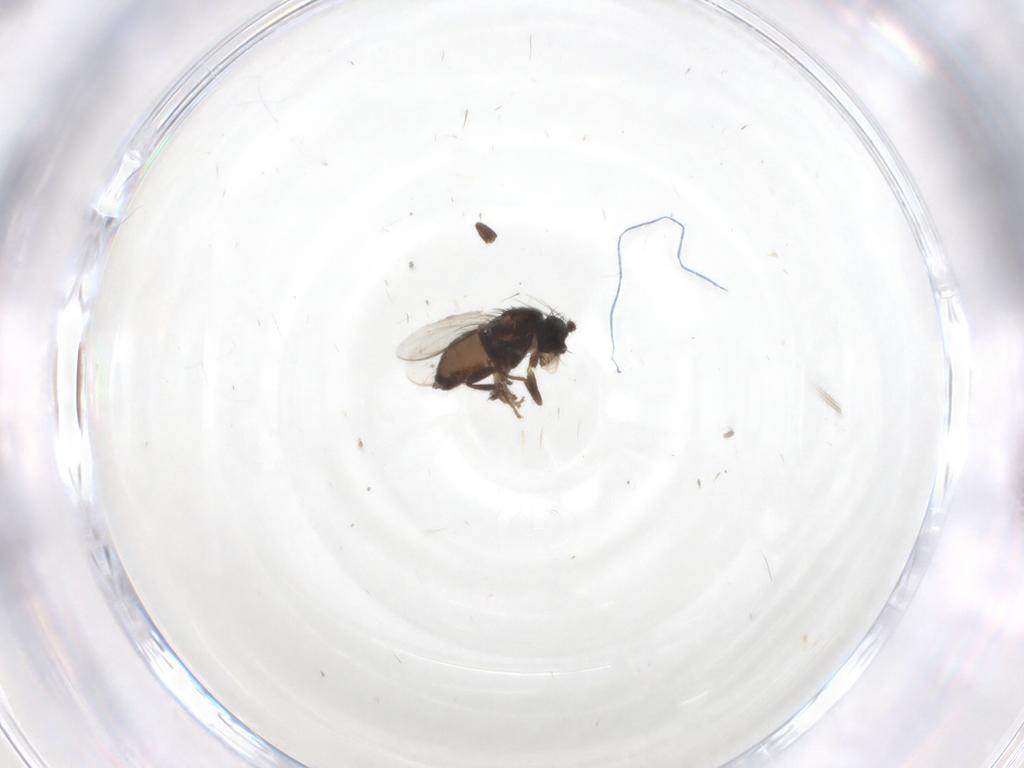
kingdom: Animalia
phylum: Arthropoda
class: Insecta
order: Diptera
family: Sphaeroceridae
